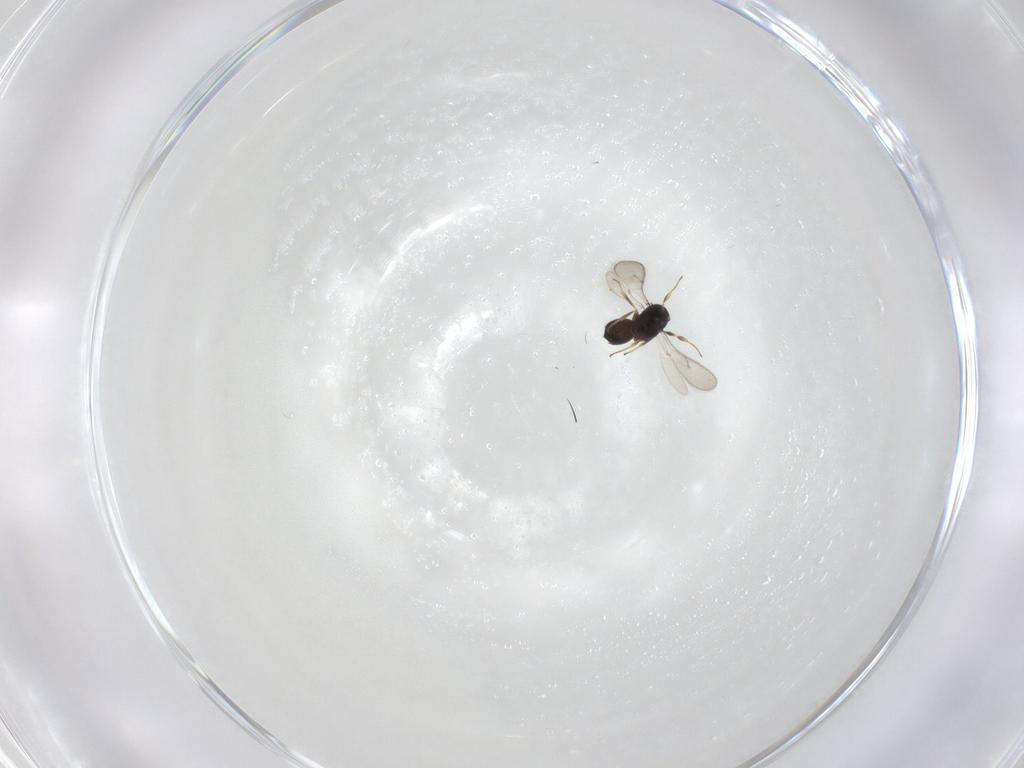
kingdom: Animalia
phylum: Arthropoda
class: Insecta
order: Hymenoptera
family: Scelionidae
